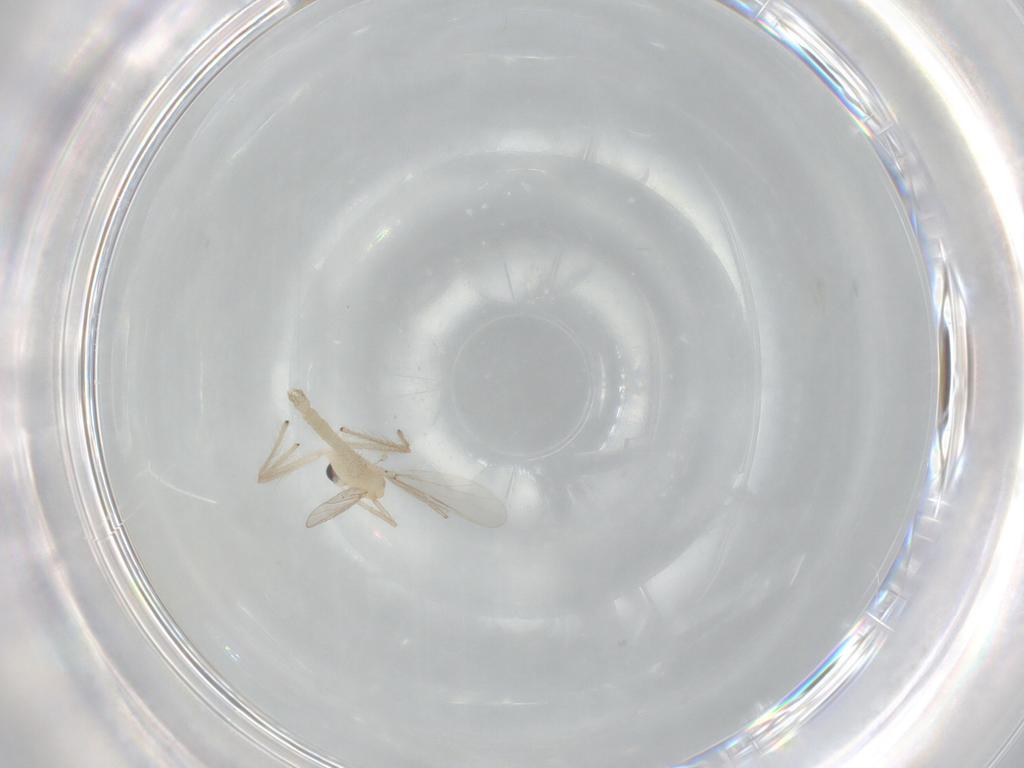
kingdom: Animalia
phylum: Arthropoda
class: Insecta
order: Diptera
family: Chironomidae
